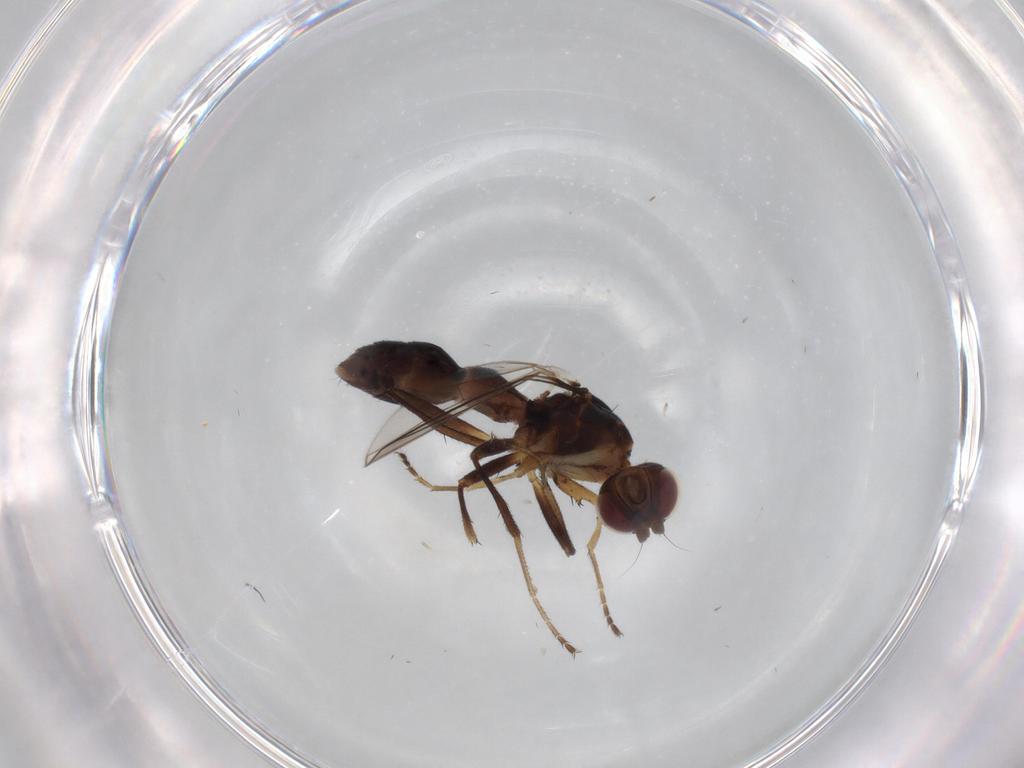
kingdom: Animalia
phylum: Arthropoda
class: Insecta
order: Diptera
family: Sepsidae
